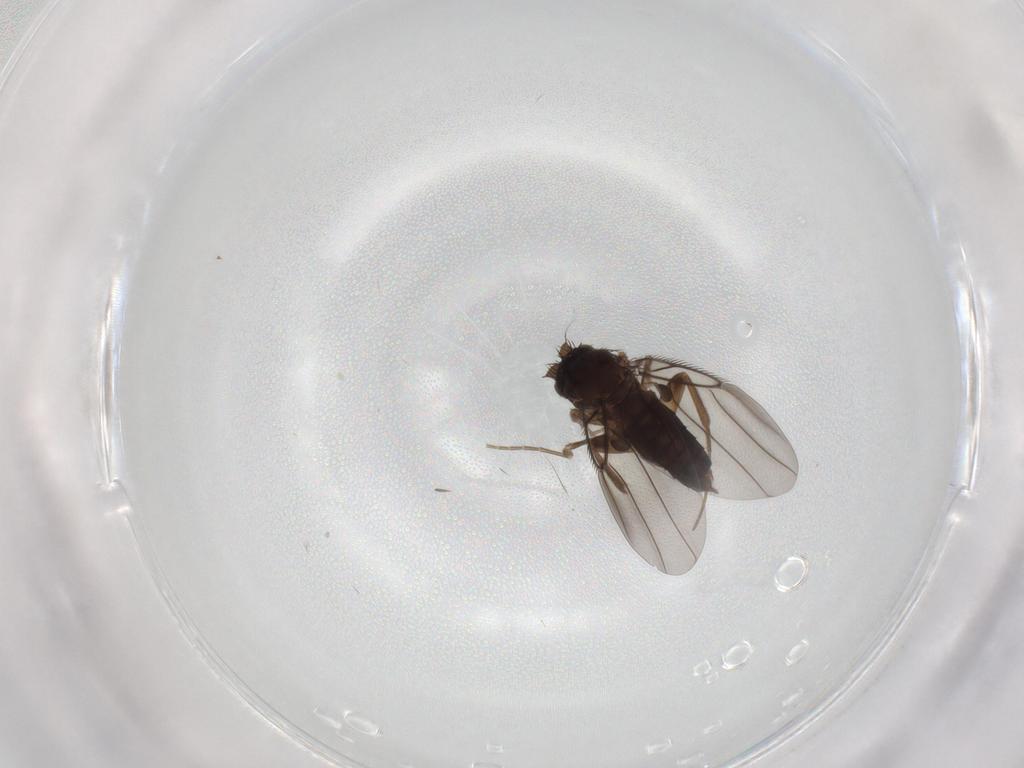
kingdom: Animalia
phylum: Arthropoda
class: Insecta
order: Diptera
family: Phoridae
